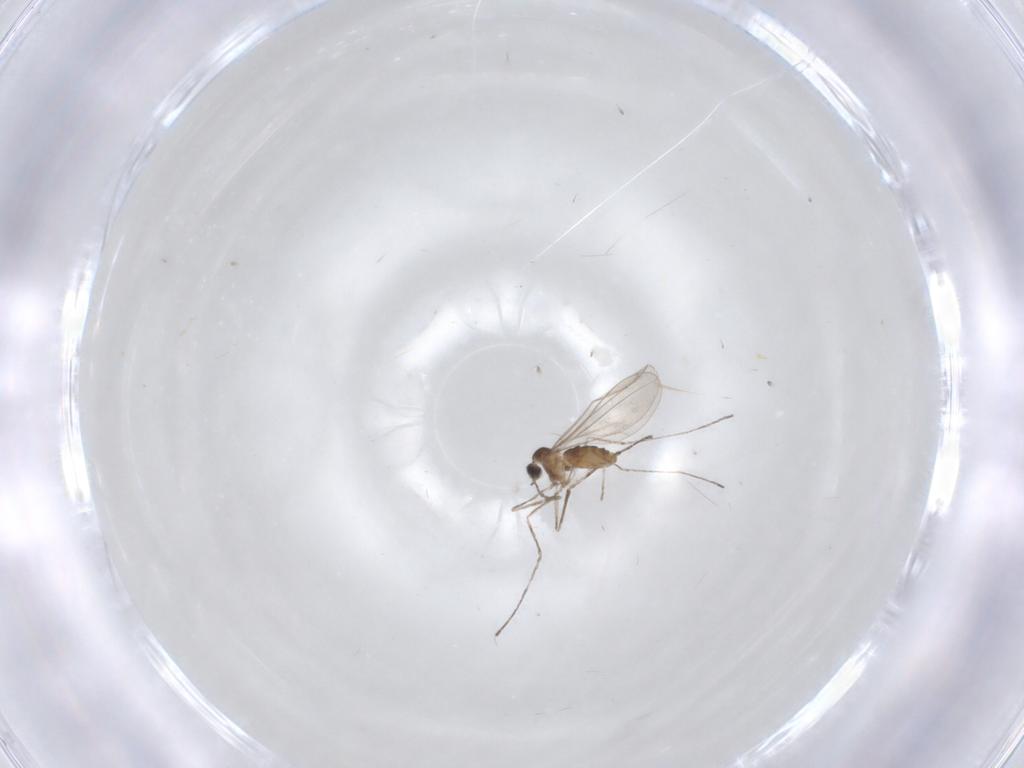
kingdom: Animalia
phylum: Arthropoda
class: Insecta
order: Diptera
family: Cecidomyiidae
